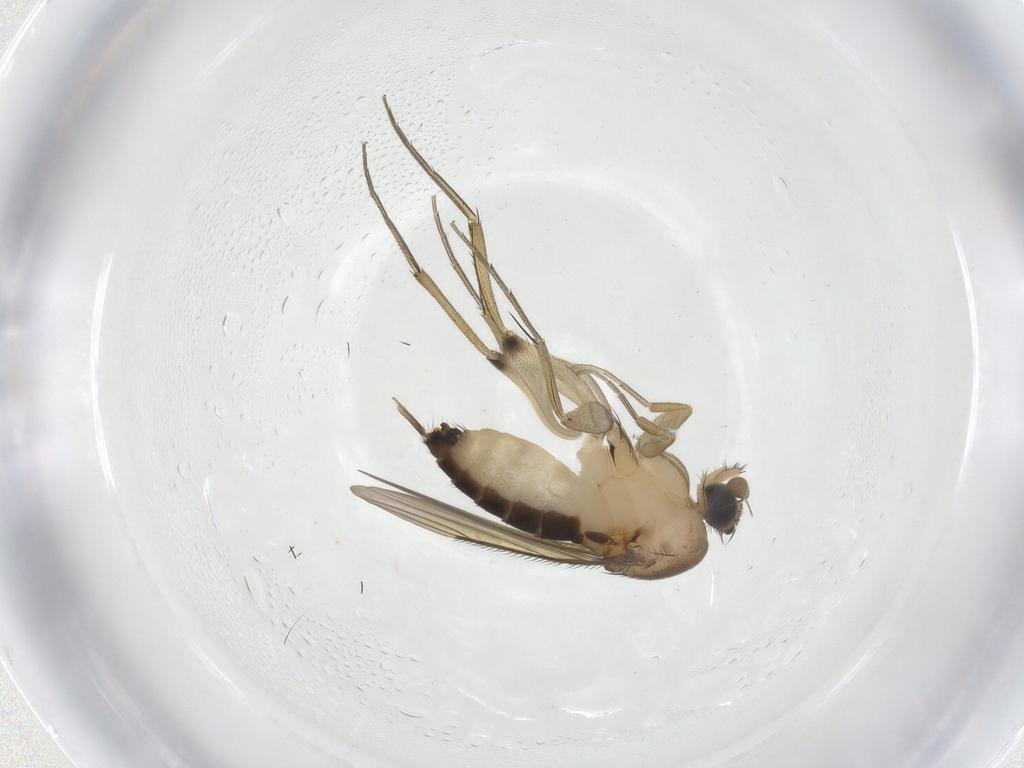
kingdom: Animalia
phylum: Arthropoda
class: Insecta
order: Diptera
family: Phoridae
